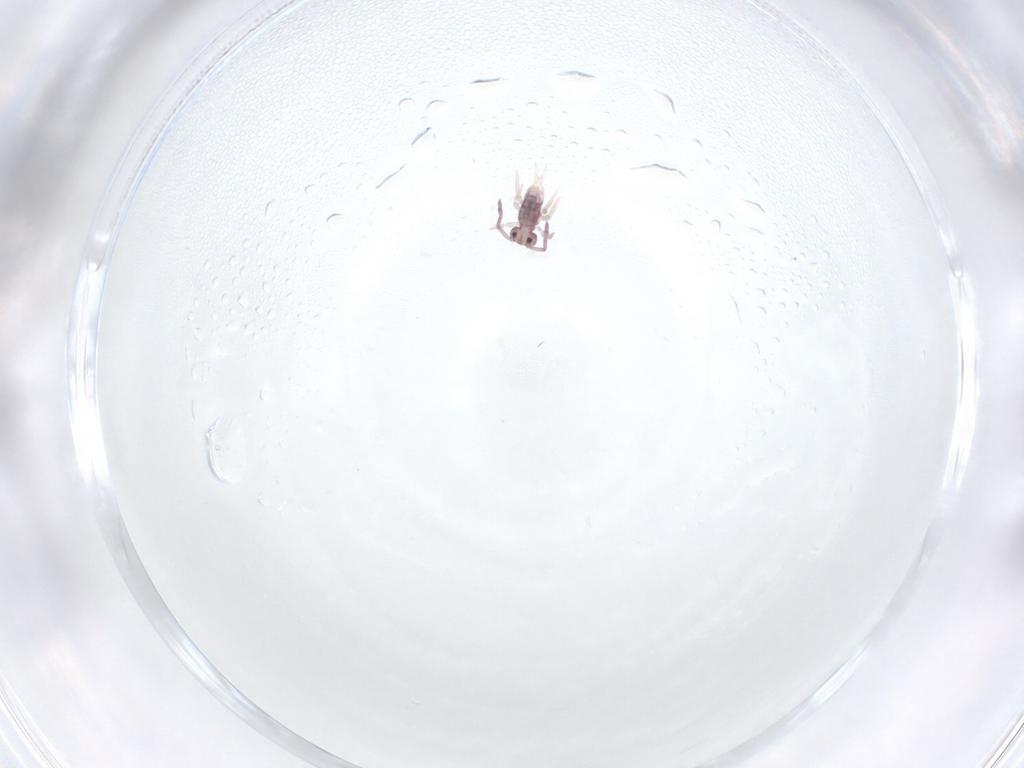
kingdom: Animalia
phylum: Arthropoda
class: Collembola
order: Symphypleona
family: Dicyrtomidae
